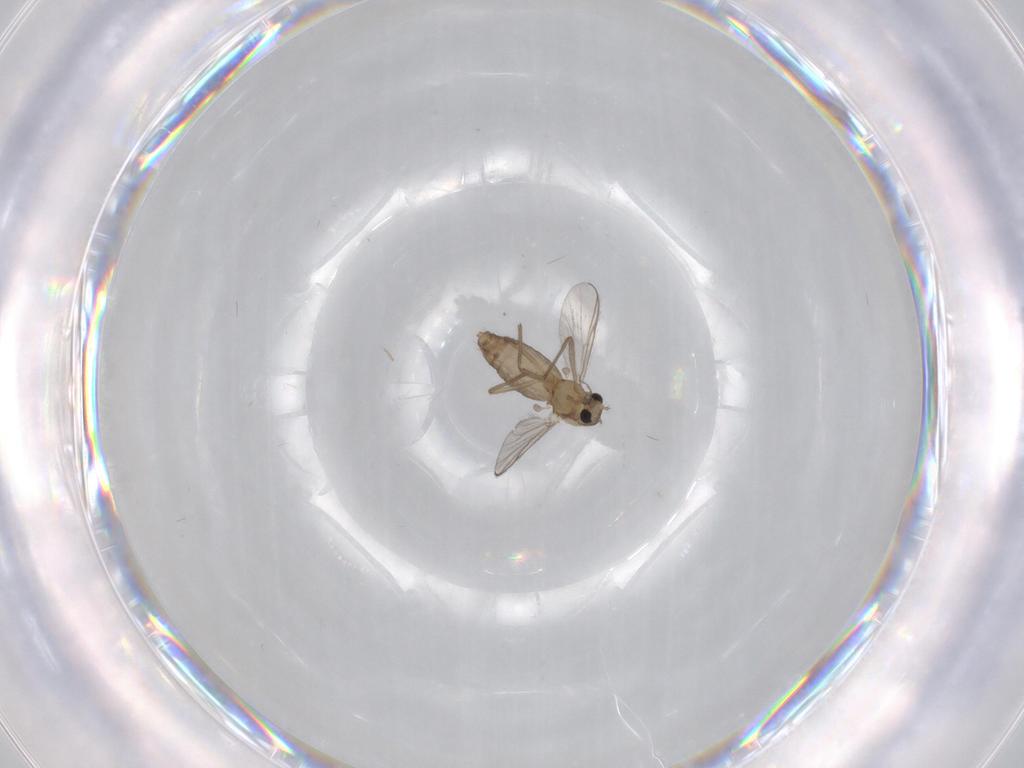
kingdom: Animalia
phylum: Arthropoda
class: Insecta
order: Diptera
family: Chironomidae
